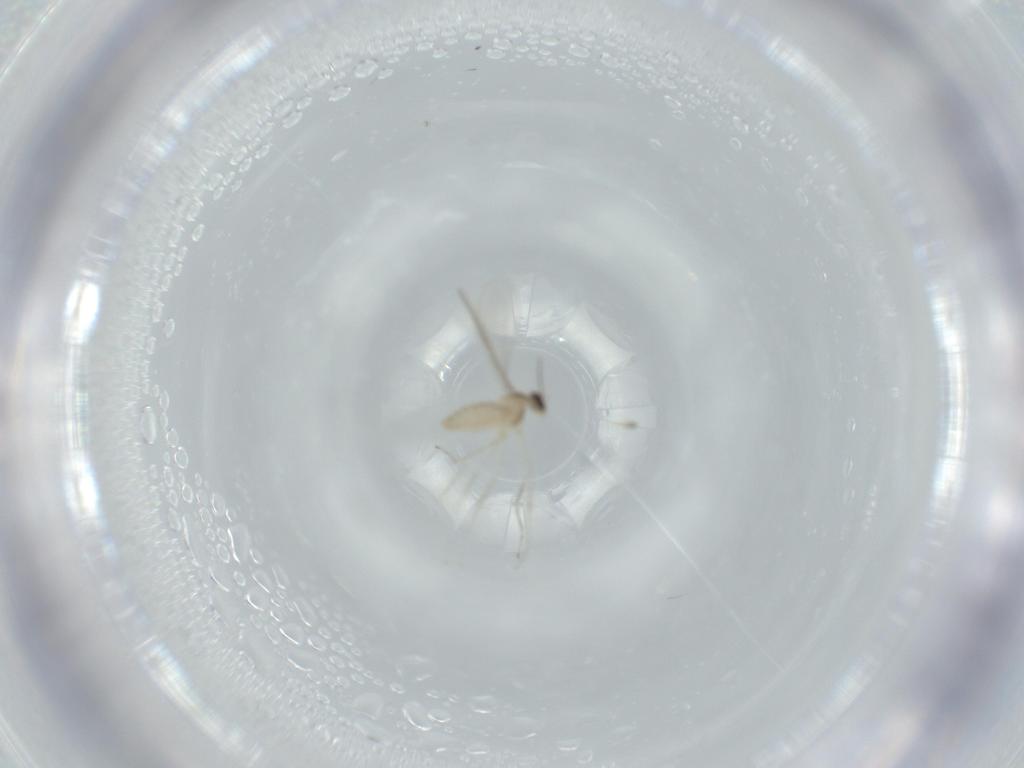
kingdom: Animalia
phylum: Arthropoda
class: Insecta
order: Diptera
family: Cecidomyiidae
